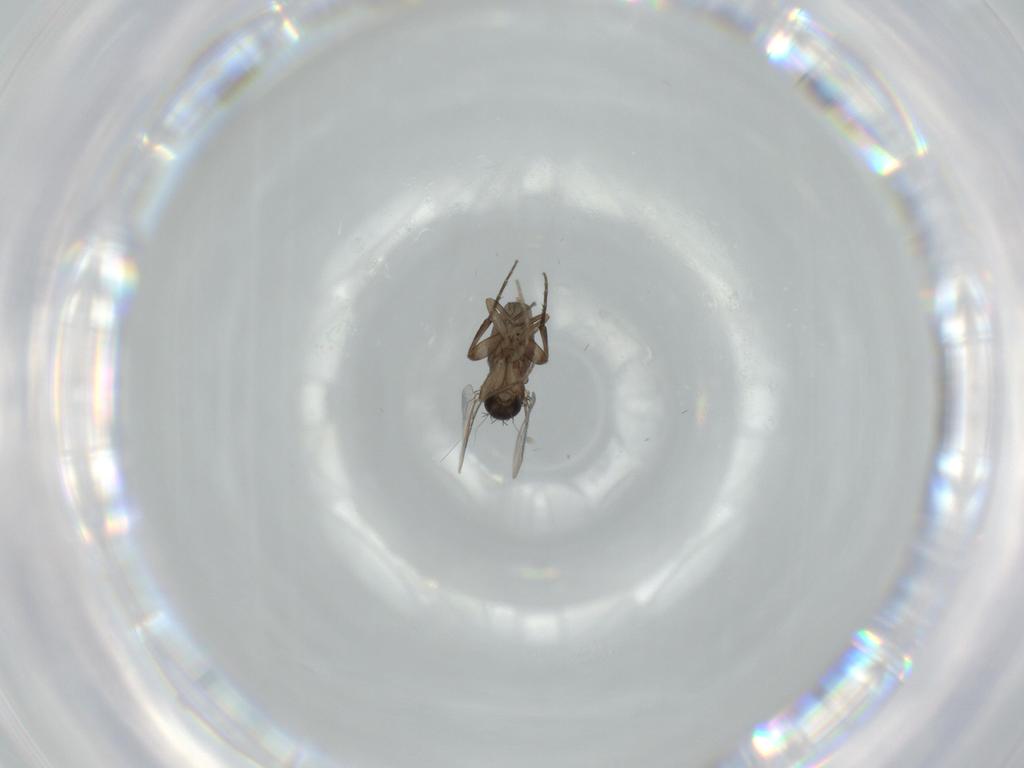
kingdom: Animalia
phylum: Arthropoda
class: Insecta
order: Diptera
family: Phoridae
